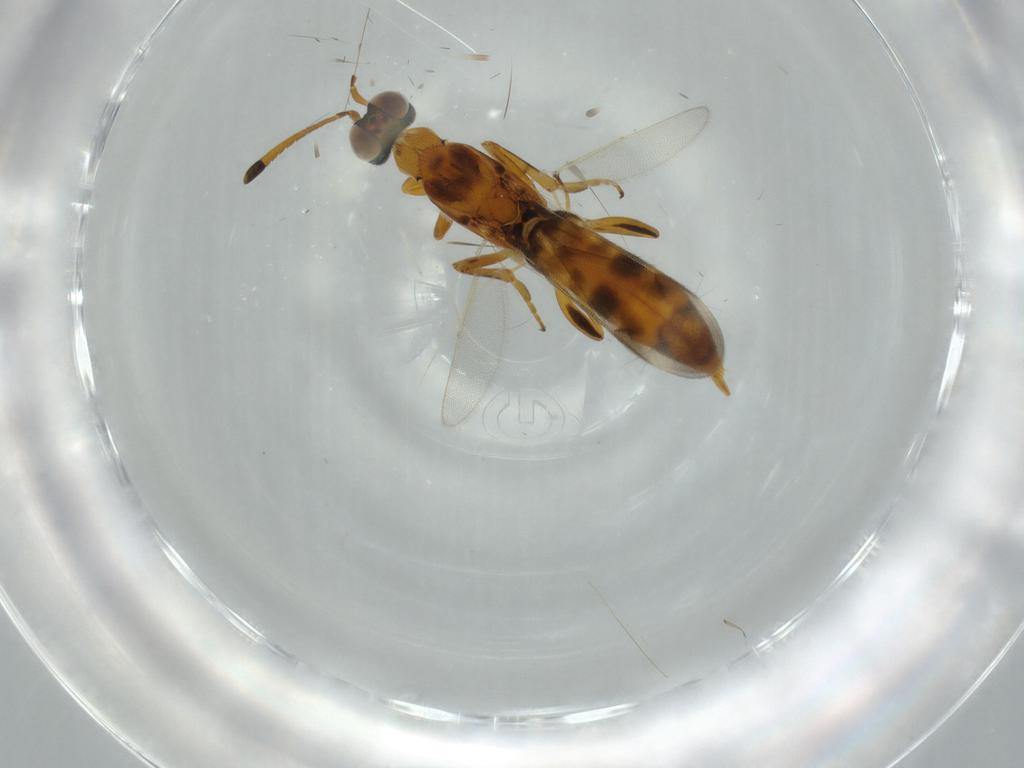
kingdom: Animalia
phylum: Arthropoda
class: Insecta
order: Hymenoptera
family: Eupelmidae
